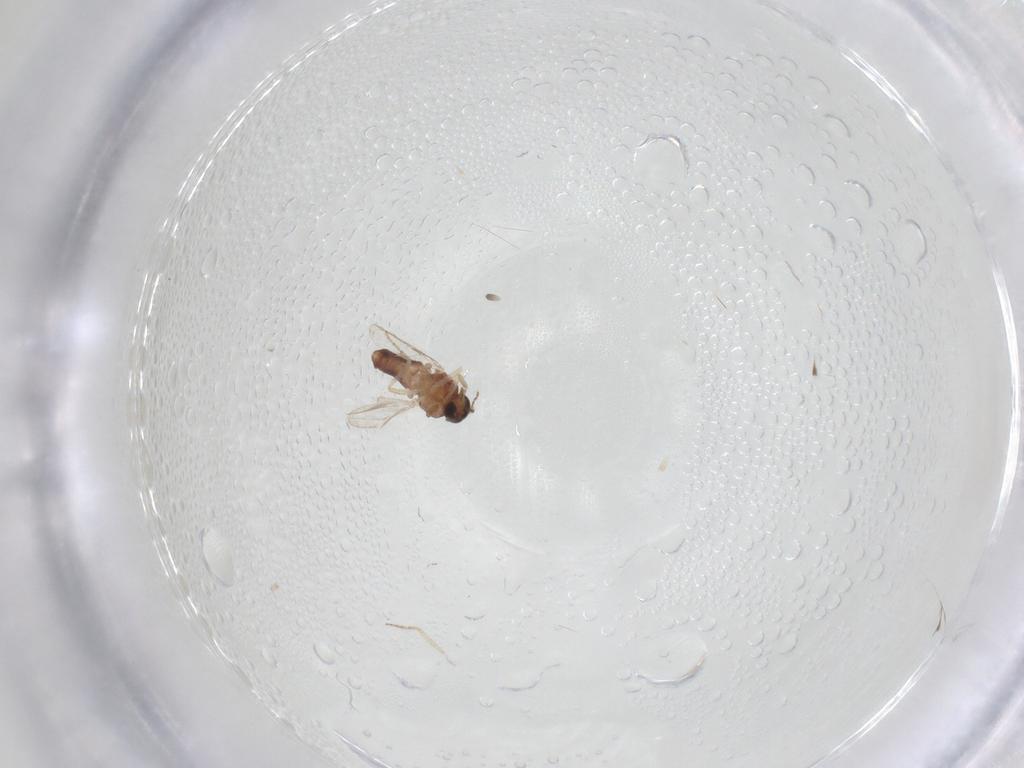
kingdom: Animalia
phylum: Arthropoda
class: Insecta
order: Diptera
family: Ceratopogonidae
